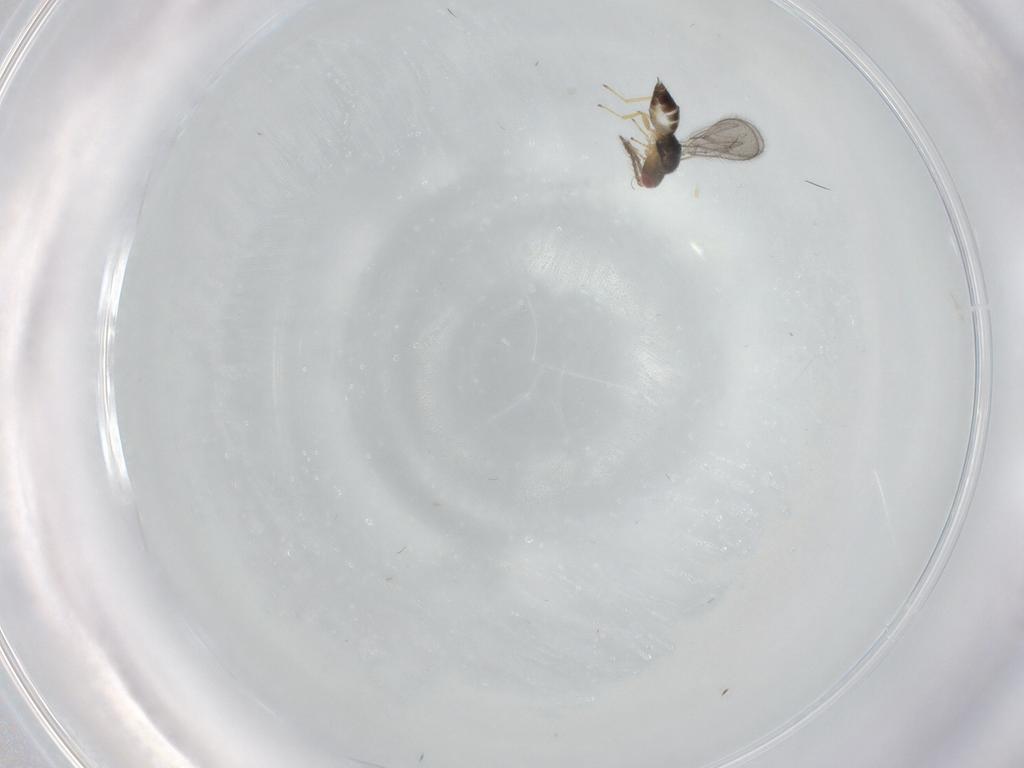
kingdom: Animalia
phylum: Arthropoda
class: Insecta
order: Hymenoptera
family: Eulophidae
